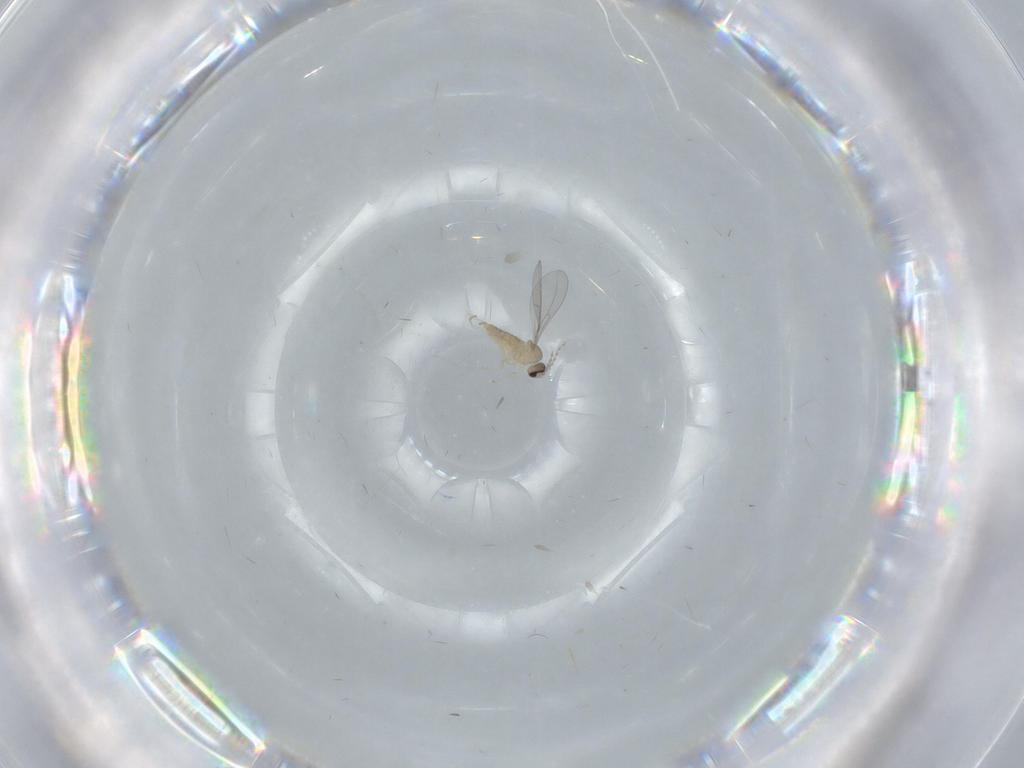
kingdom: Animalia
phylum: Arthropoda
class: Insecta
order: Diptera
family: Cecidomyiidae
